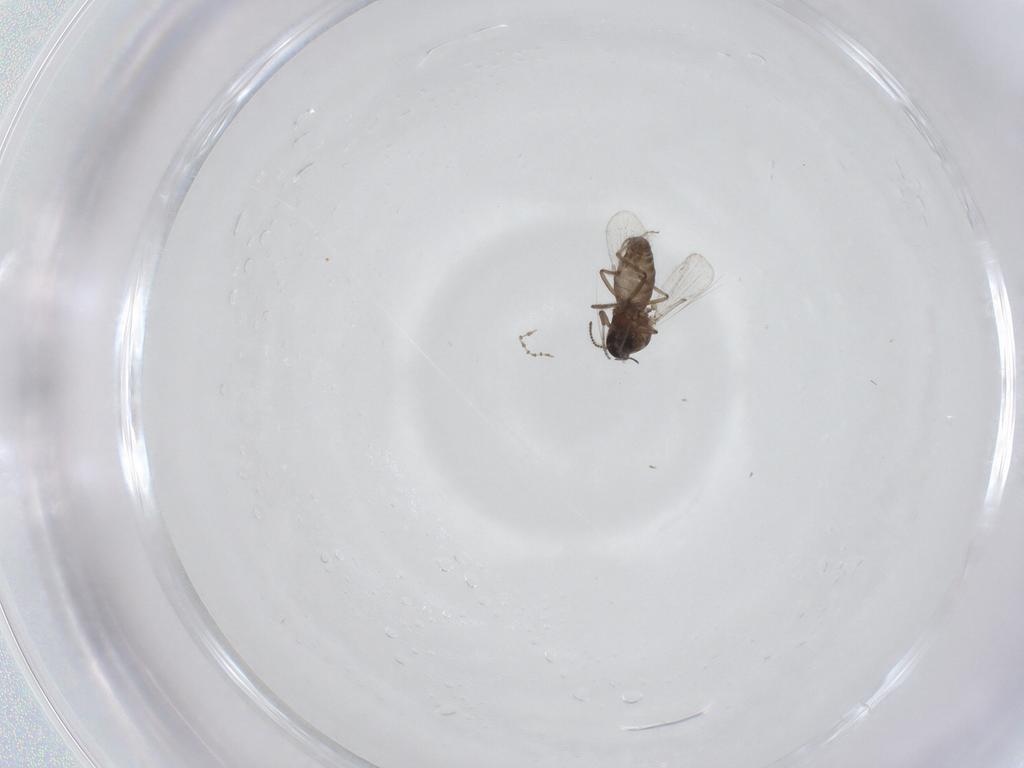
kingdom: Animalia
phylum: Arthropoda
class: Insecta
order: Diptera
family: Ceratopogonidae
